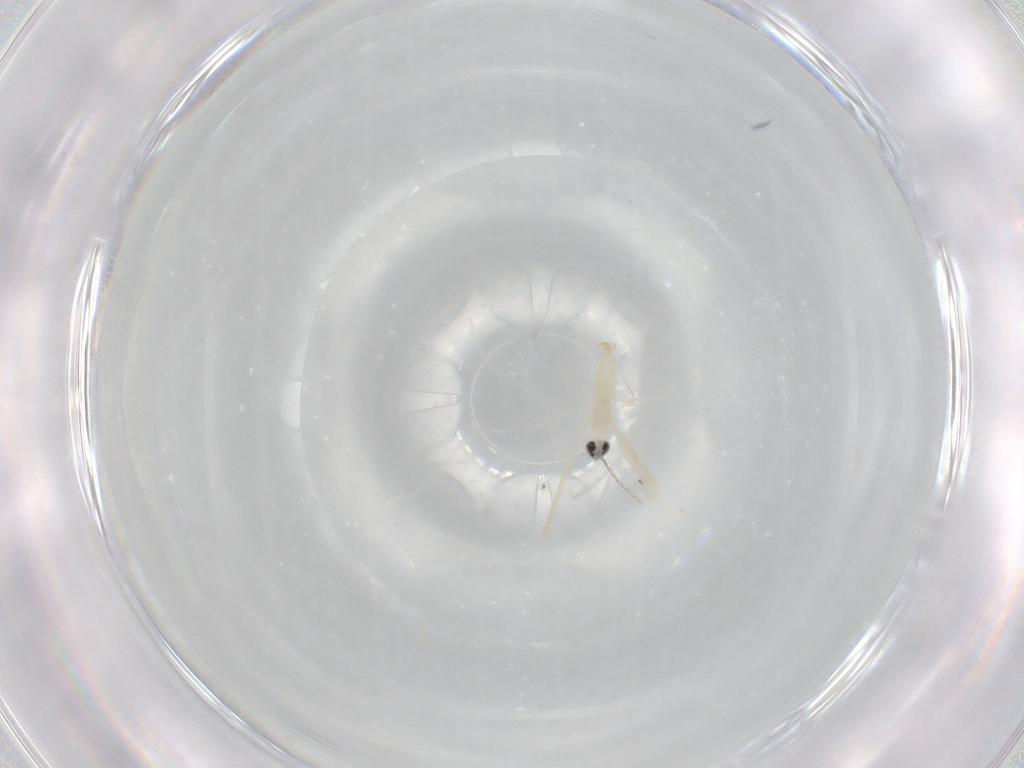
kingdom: Animalia
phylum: Arthropoda
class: Insecta
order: Diptera
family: Cecidomyiidae
